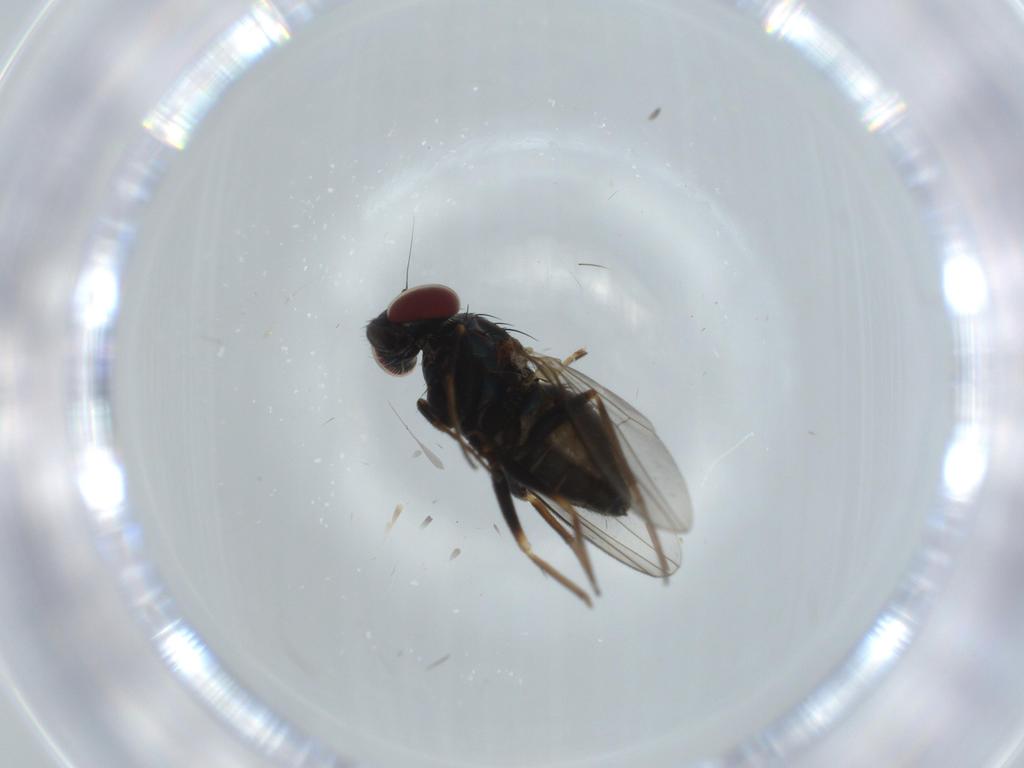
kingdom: Animalia
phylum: Arthropoda
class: Insecta
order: Diptera
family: Dolichopodidae
